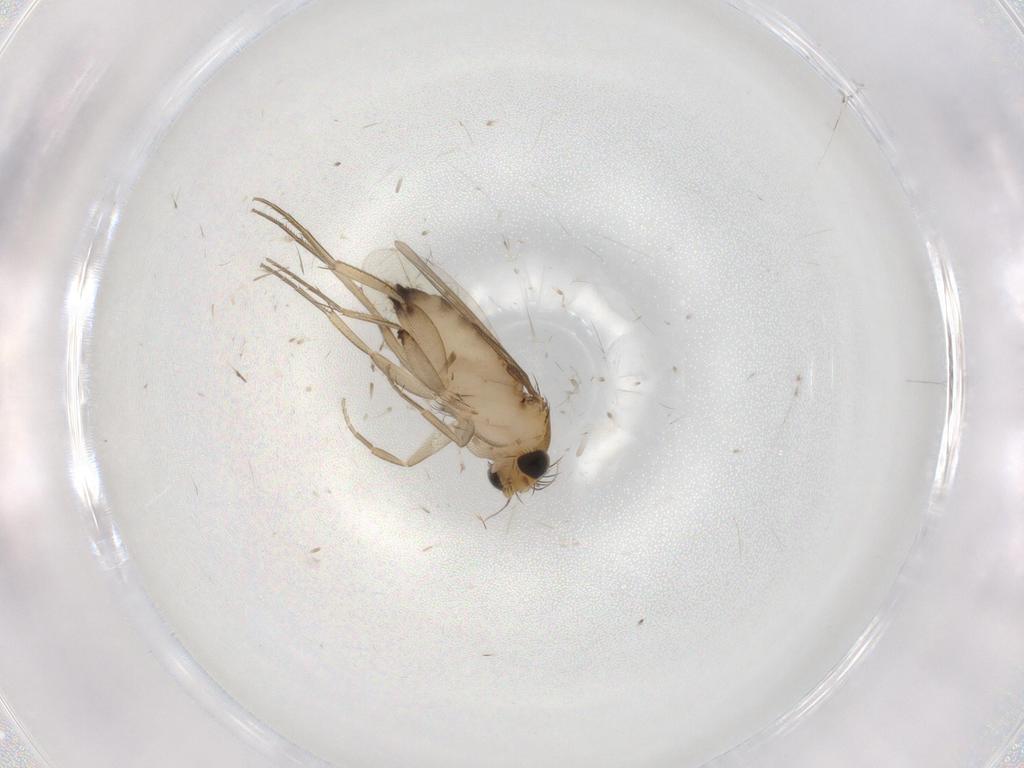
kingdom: Animalia
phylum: Arthropoda
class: Insecta
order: Diptera
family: Phoridae
